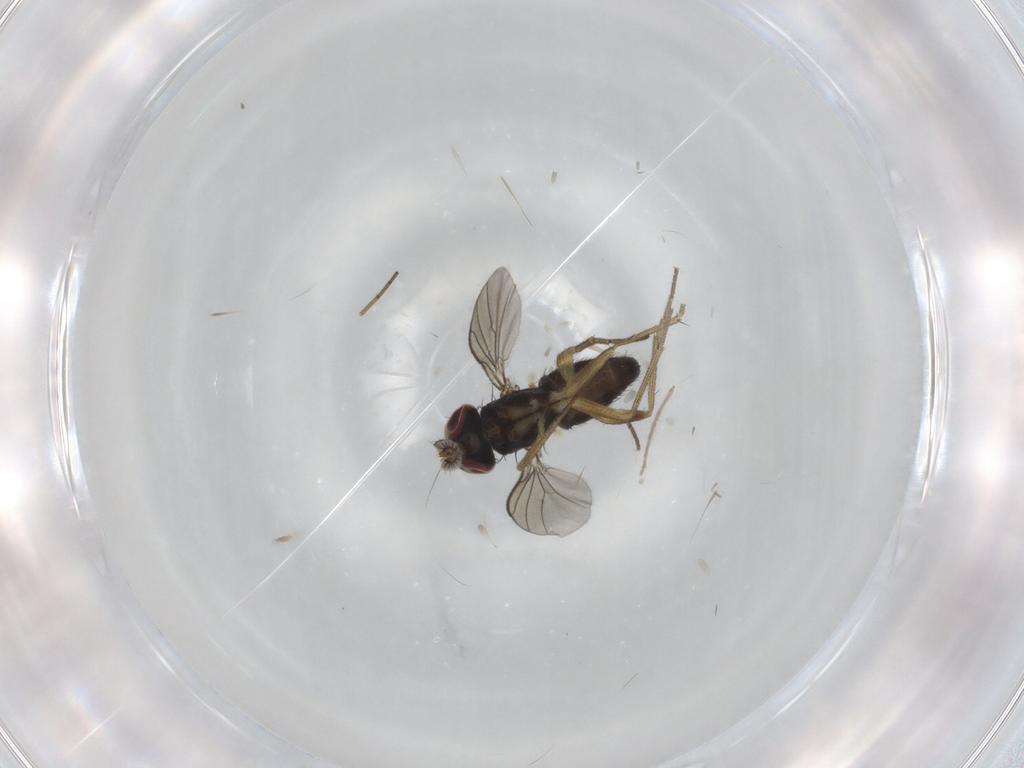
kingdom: Animalia
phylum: Arthropoda
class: Insecta
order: Diptera
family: Dolichopodidae
